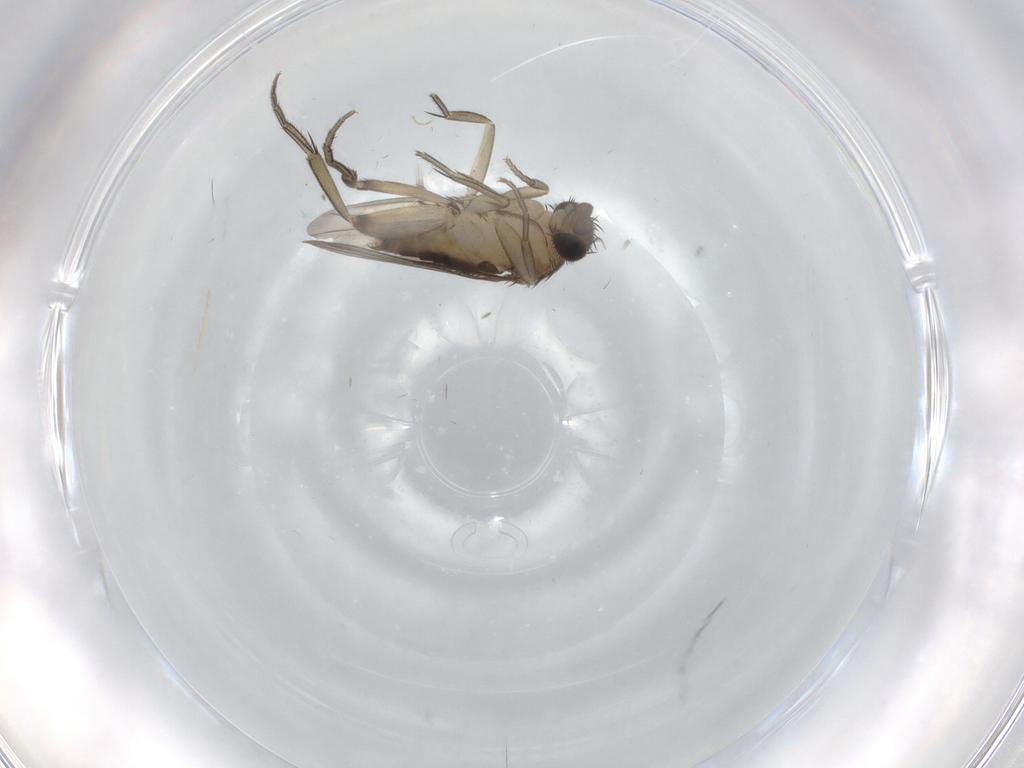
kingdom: Animalia
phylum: Arthropoda
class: Insecta
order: Diptera
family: Phoridae
